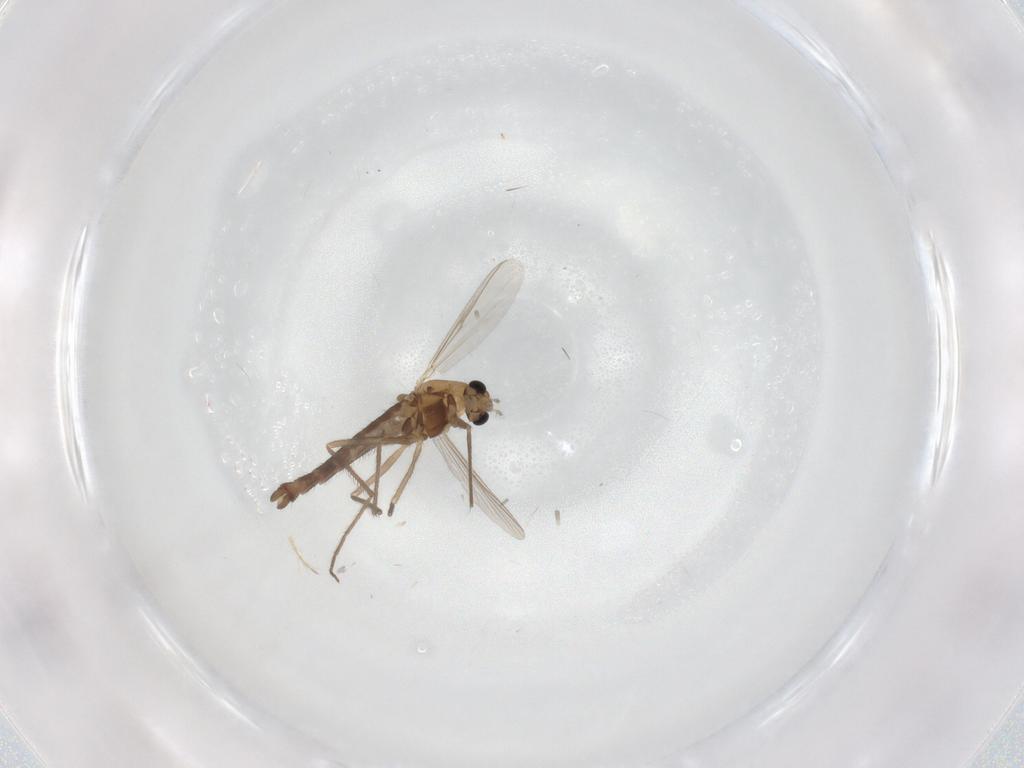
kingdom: Animalia
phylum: Arthropoda
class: Insecta
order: Diptera
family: Chironomidae
